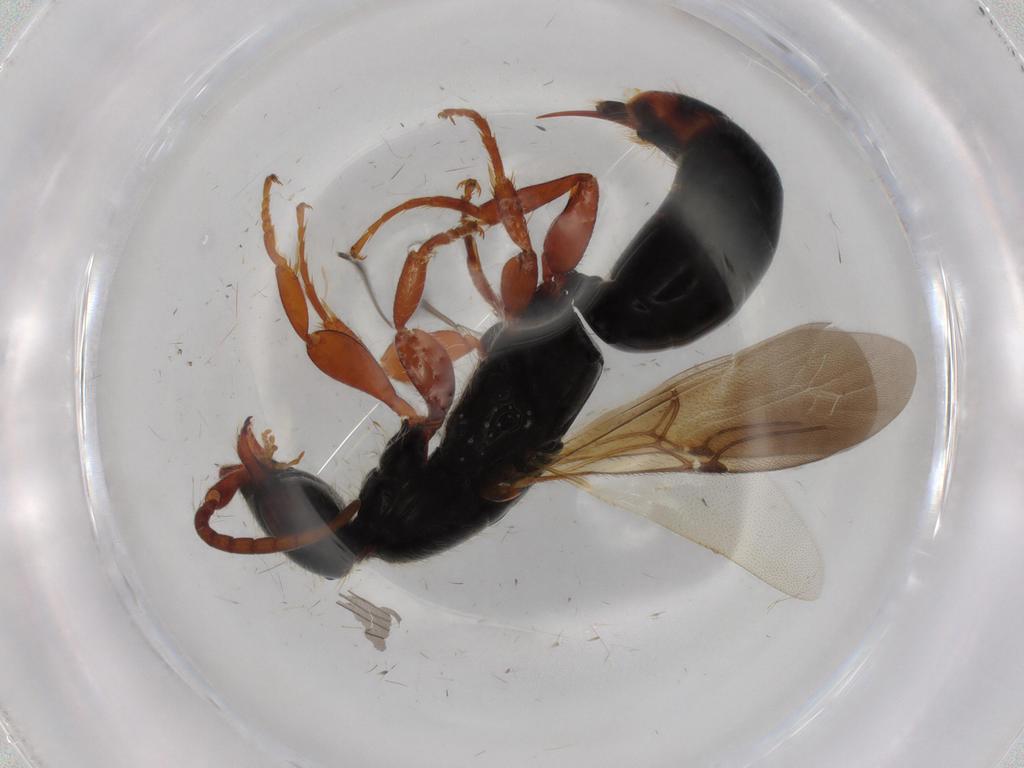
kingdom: Animalia
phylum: Arthropoda
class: Insecta
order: Hymenoptera
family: Bethylidae
